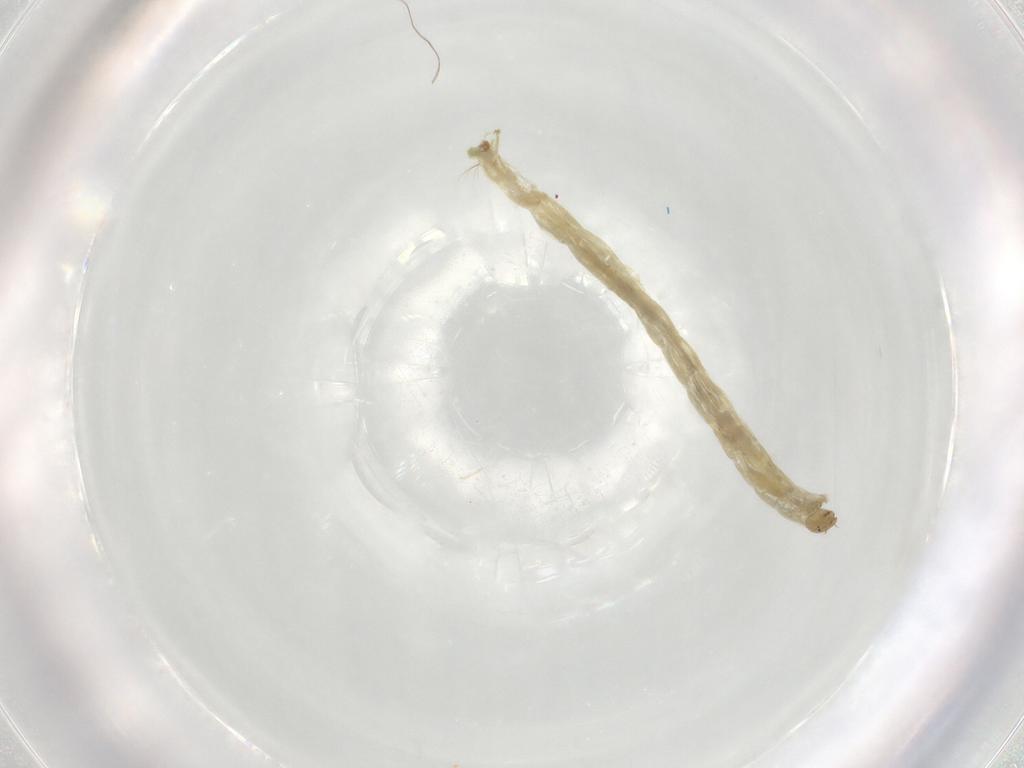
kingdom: Animalia
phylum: Arthropoda
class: Insecta
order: Diptera
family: Chironomidae
